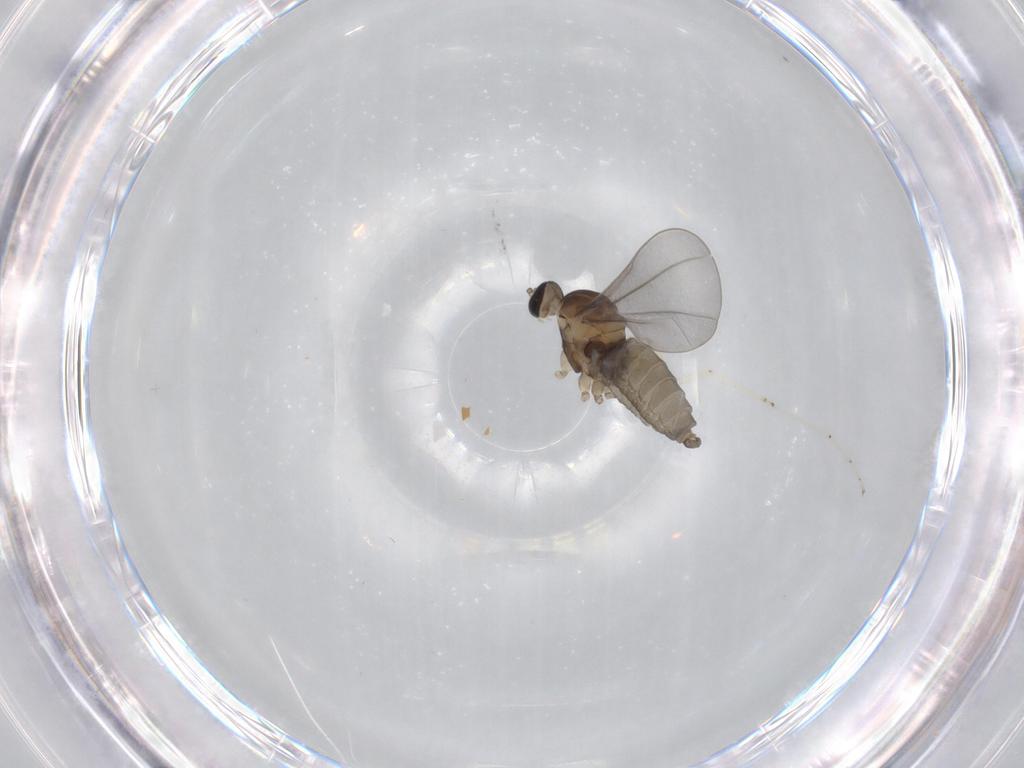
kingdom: Animalia
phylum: Arthropoda
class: Insecta
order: Diptera
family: Cecidomyiidae
